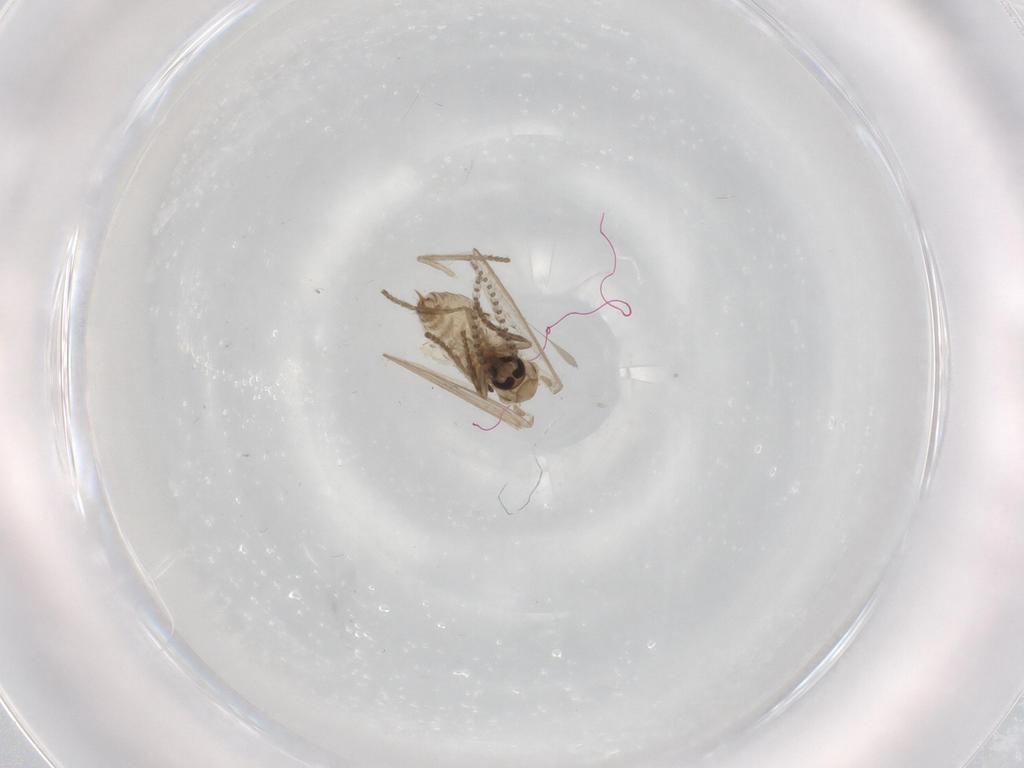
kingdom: Animalia
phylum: Arthropoda
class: Insecta
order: Diptera
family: Psychodidae
